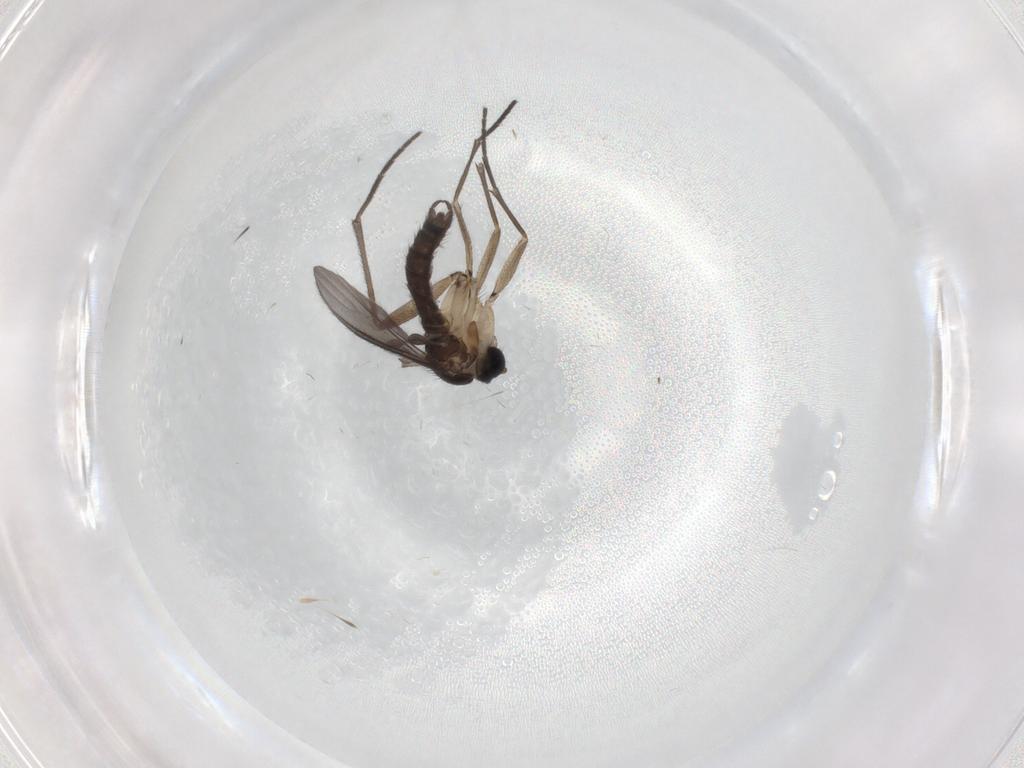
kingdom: Animalia
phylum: Arthropoda
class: Insecta
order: Diptera
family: Sciaridae
